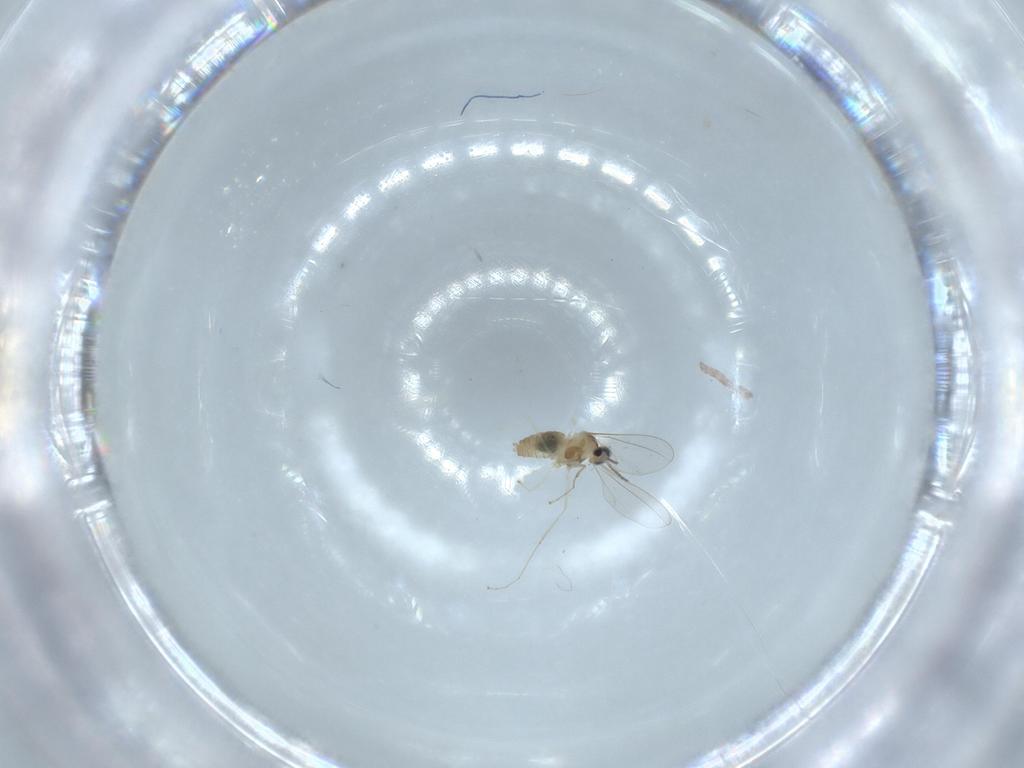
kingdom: Animalia
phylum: Arthropoda
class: Insecta
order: Diptera
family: Cecidomyiidae
